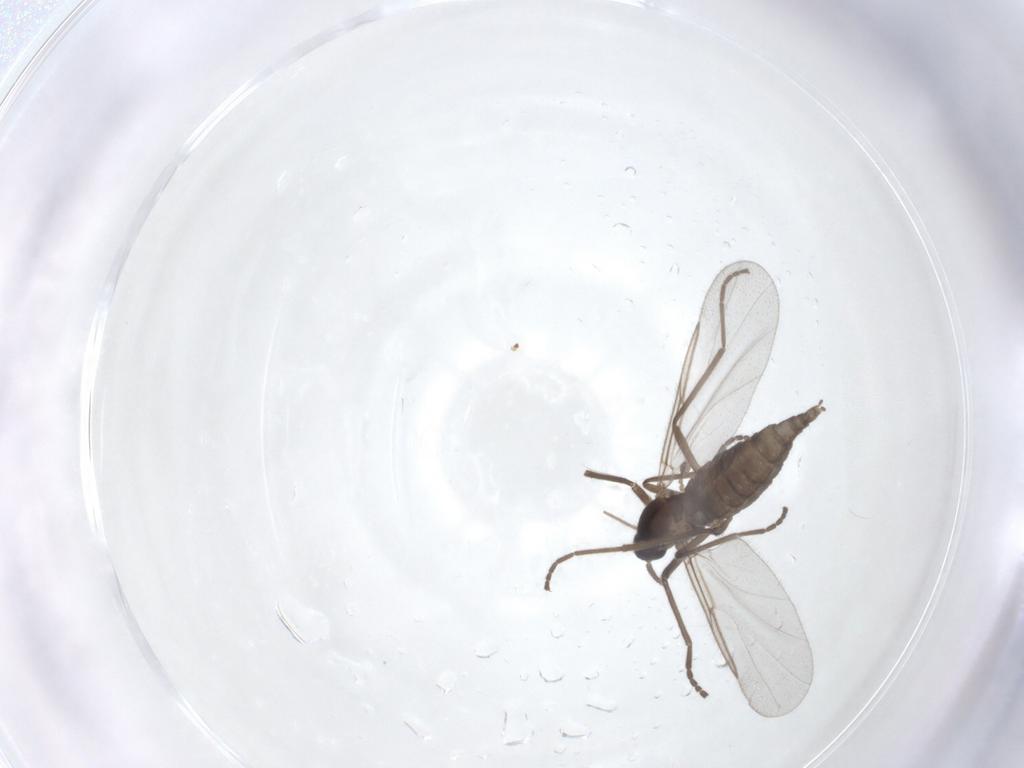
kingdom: Animalia
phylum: Arthropoda
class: Insecta
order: Diptera
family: Cecidomyiidae
